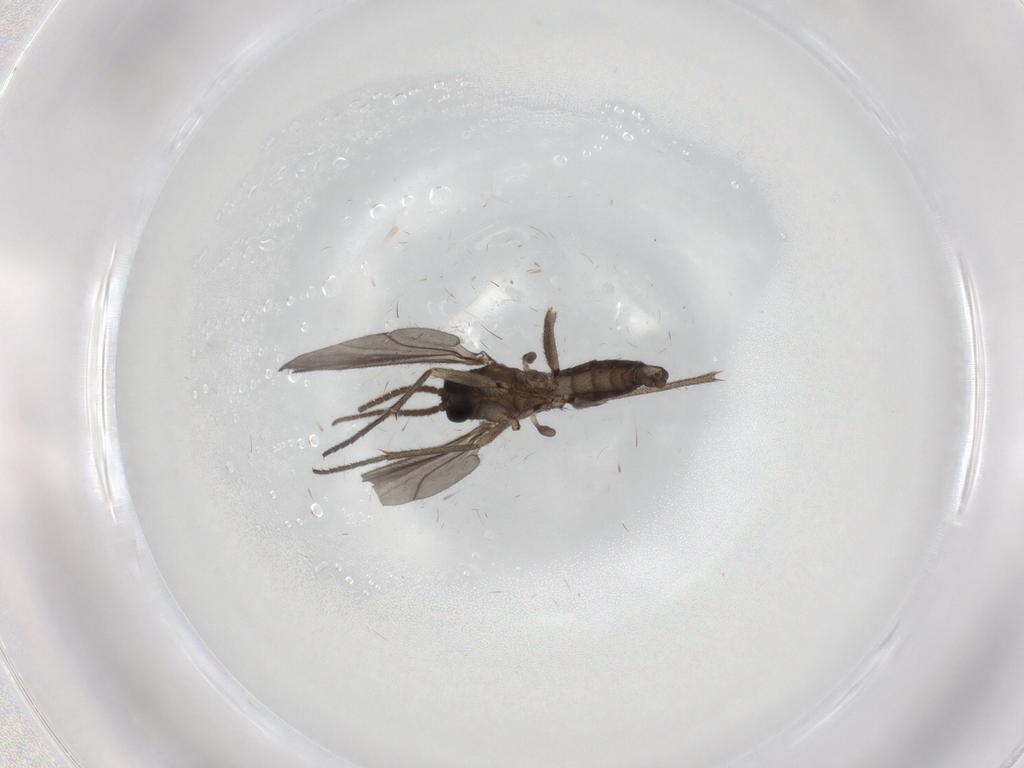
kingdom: Animalia
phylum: Arthropoda
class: Insecta
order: Diptera
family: Sciaridae
